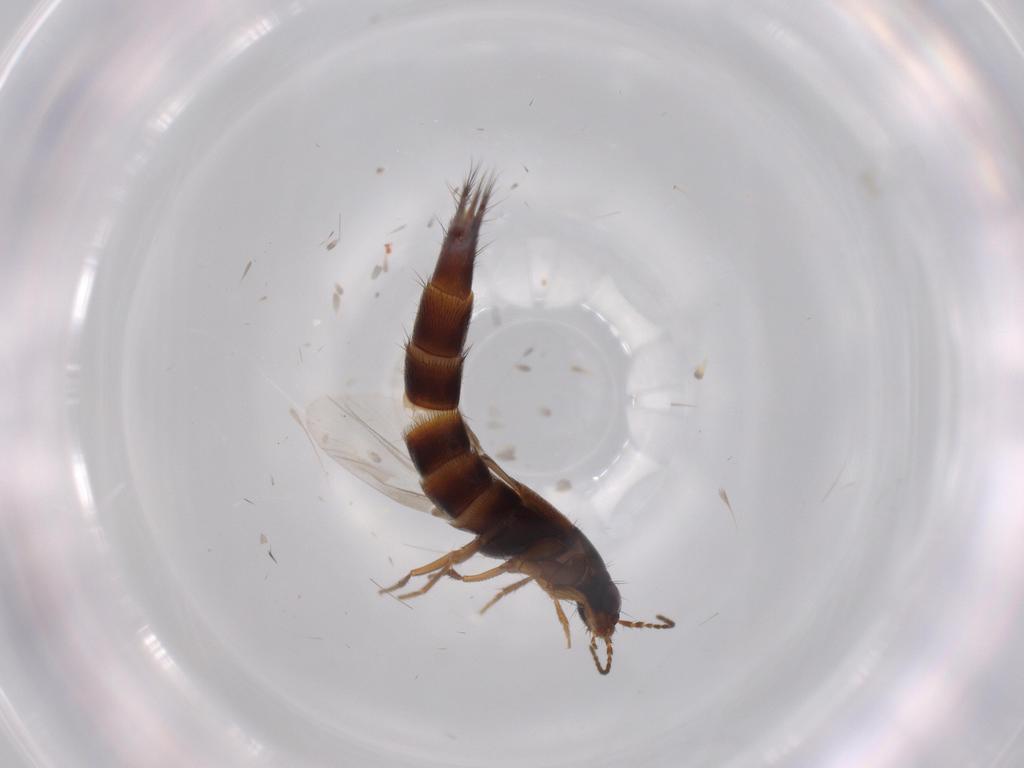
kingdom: Animalia
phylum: Arthropoda
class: Insecta
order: Coleoptera
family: Staphylinidae
